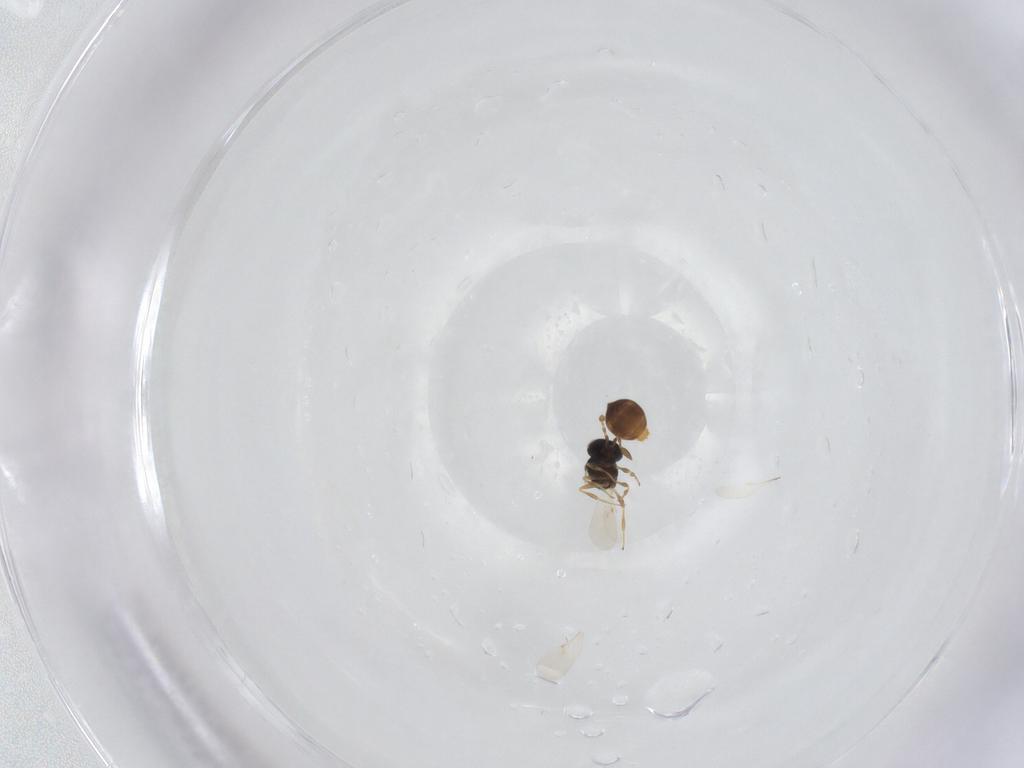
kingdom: Animalia
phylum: Arthropoda
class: Insecta
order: Hymenoptera
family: Scelionidae
